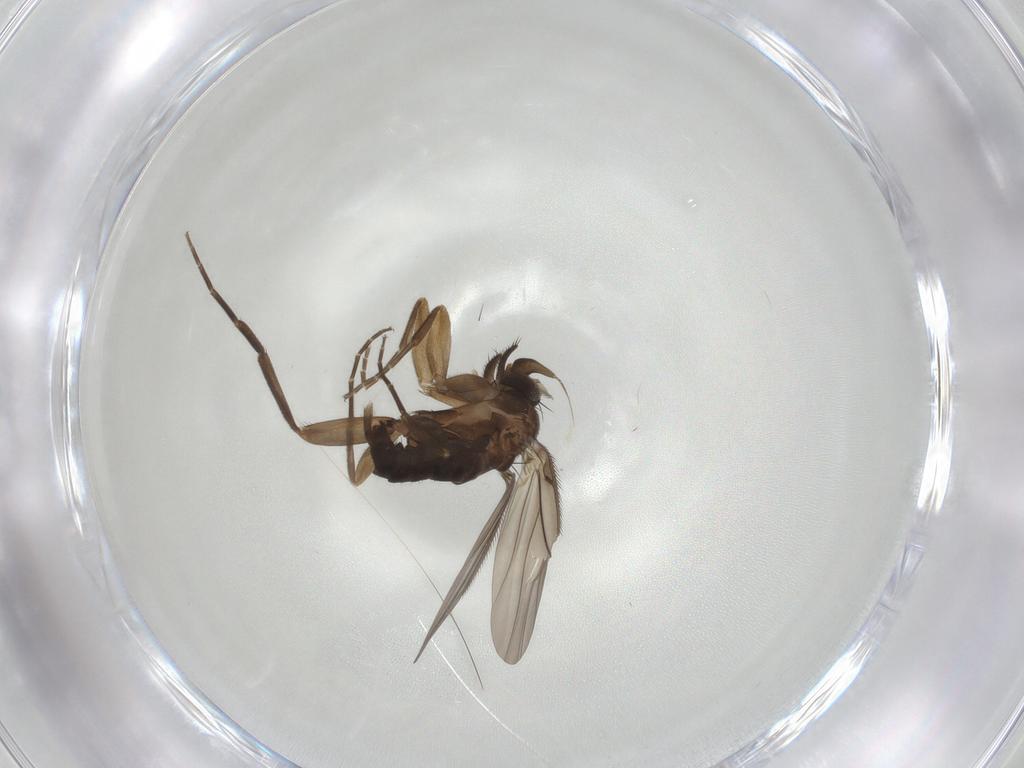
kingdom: Animalia
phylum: Arthropoda
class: Insecta
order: Diptera
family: Phoridae
